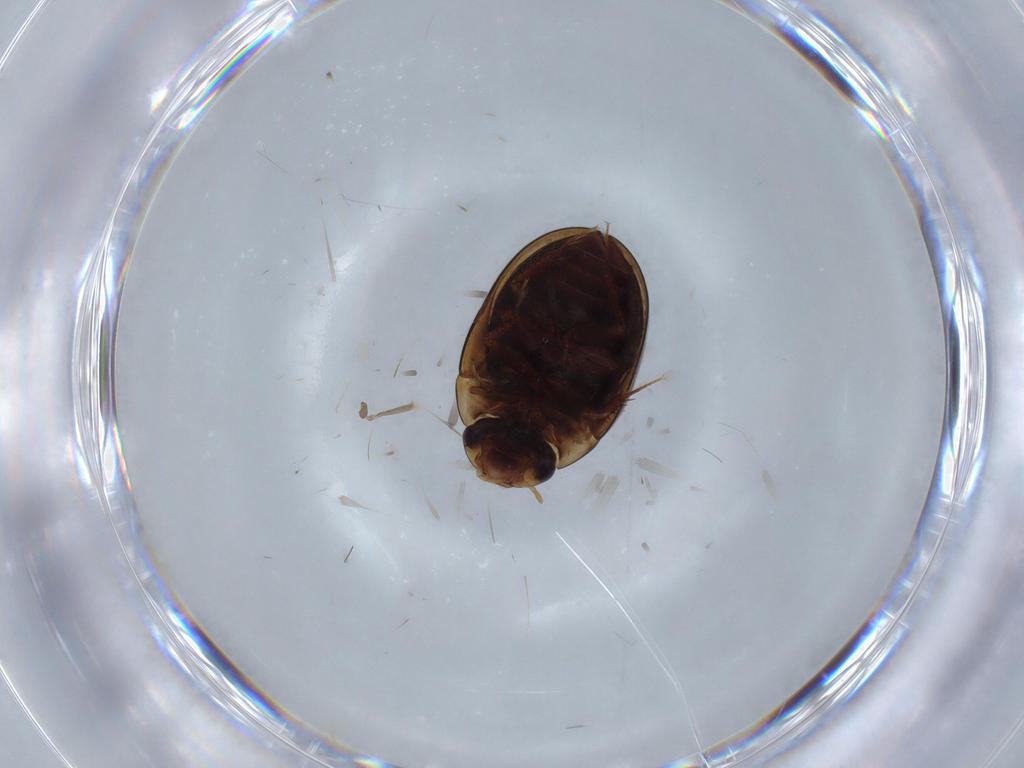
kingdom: Animalia
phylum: Arthropoda
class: Insecta
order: Coleoptera
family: Hydrophilidae
